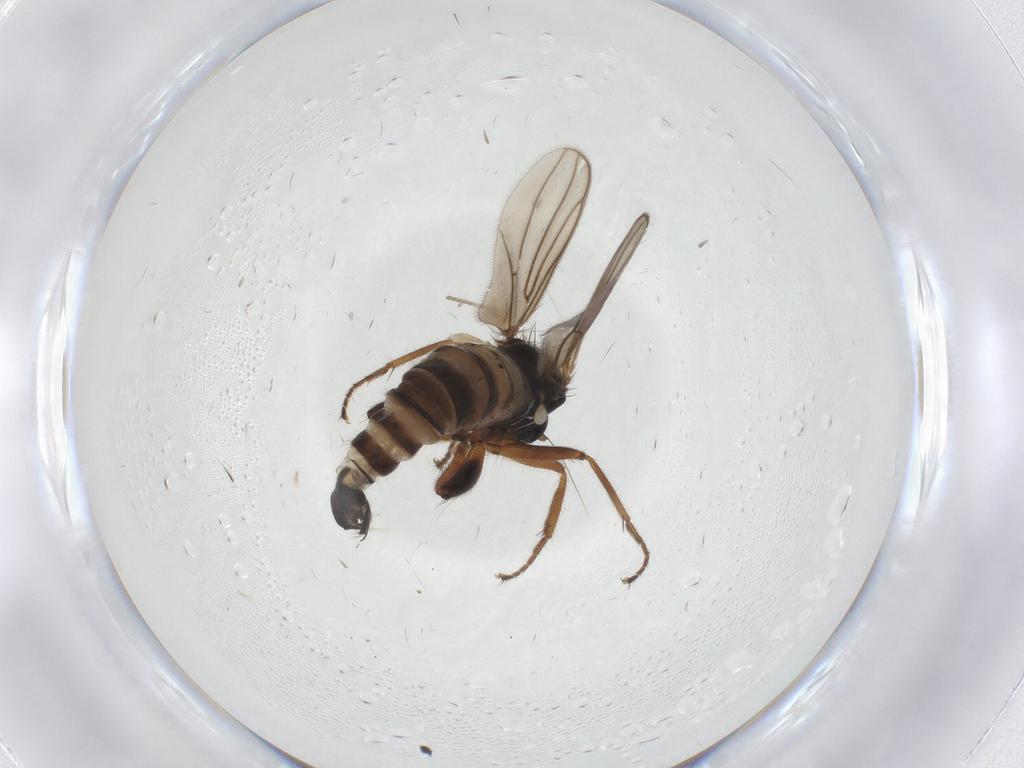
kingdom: Animalia
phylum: Arthropoda
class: Insecta
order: Diptera
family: Hybotidae
